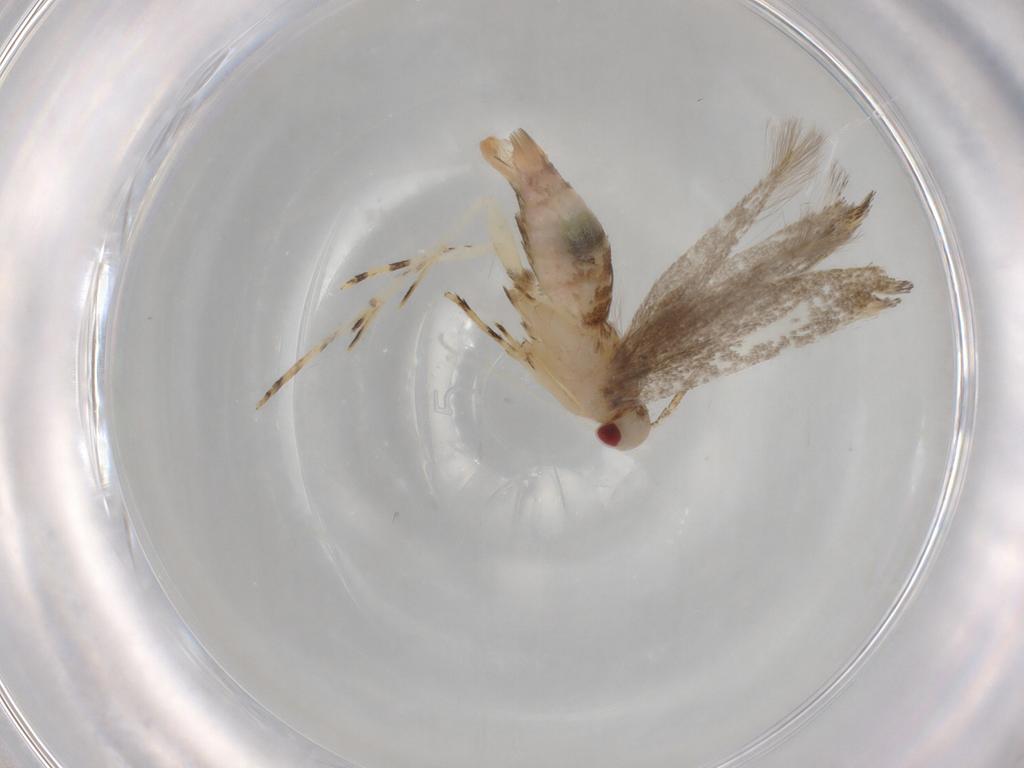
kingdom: Animalia
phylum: Arthropoda
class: Insecta
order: Lepidoptera
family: Erebidae
